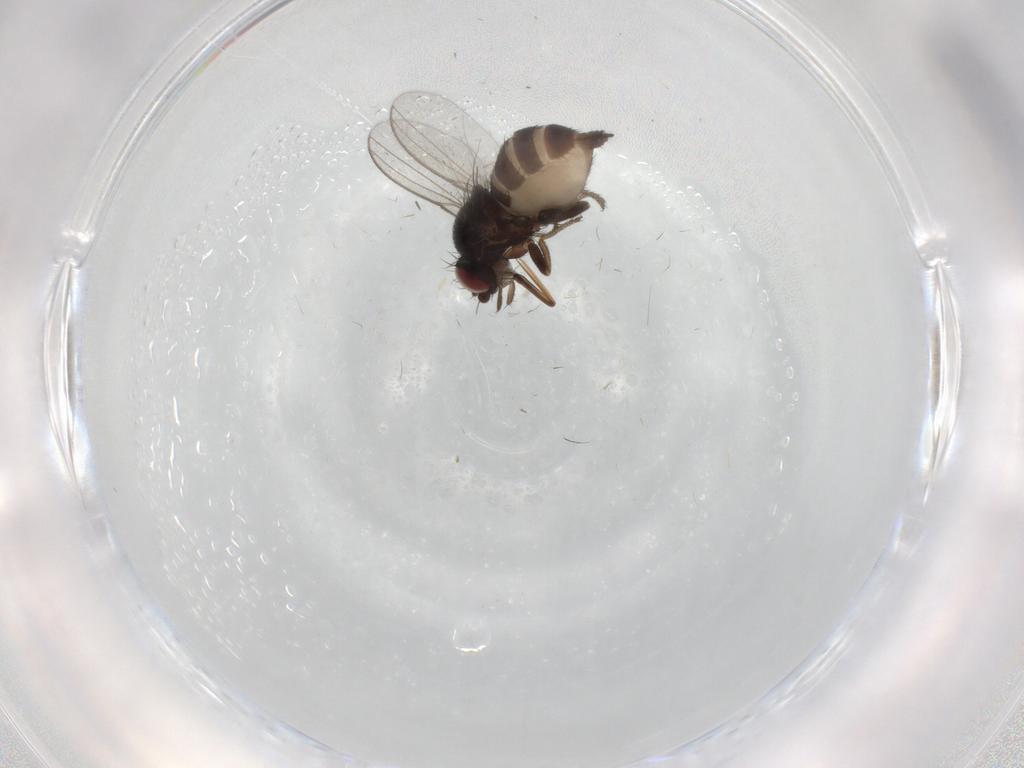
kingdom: Animalia
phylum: Arthropoda
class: Insecta
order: Diptera
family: Milichiidae
